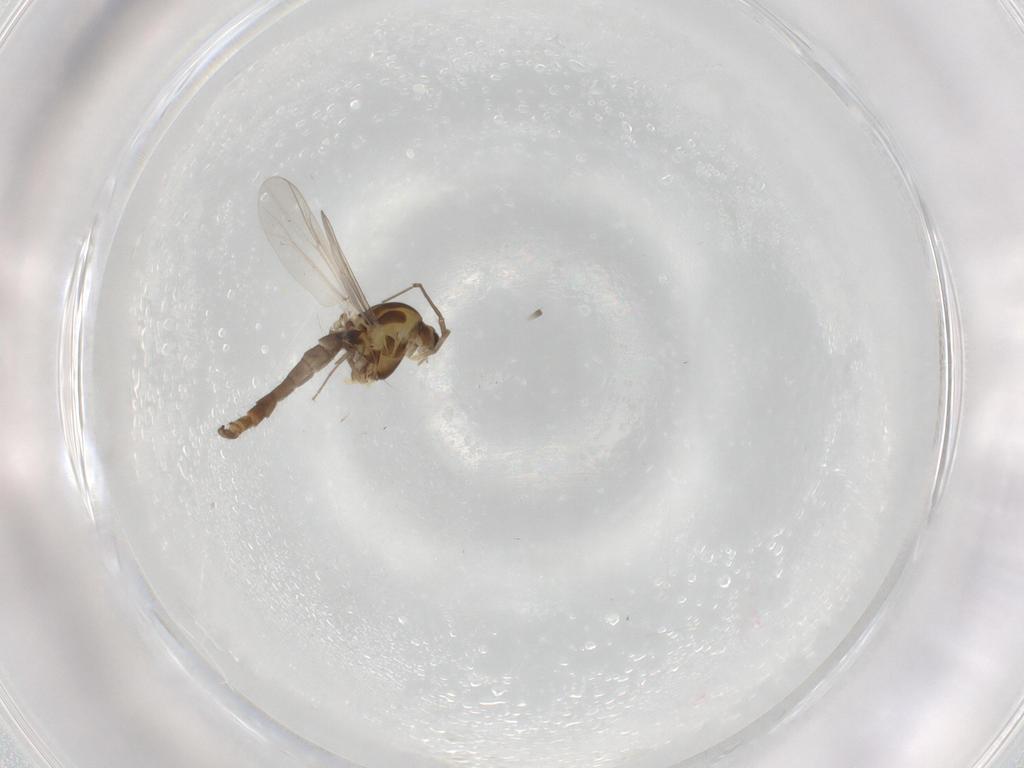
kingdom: Animalia
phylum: Arthropoda
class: Insecta
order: Diptera
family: Chironomidae
